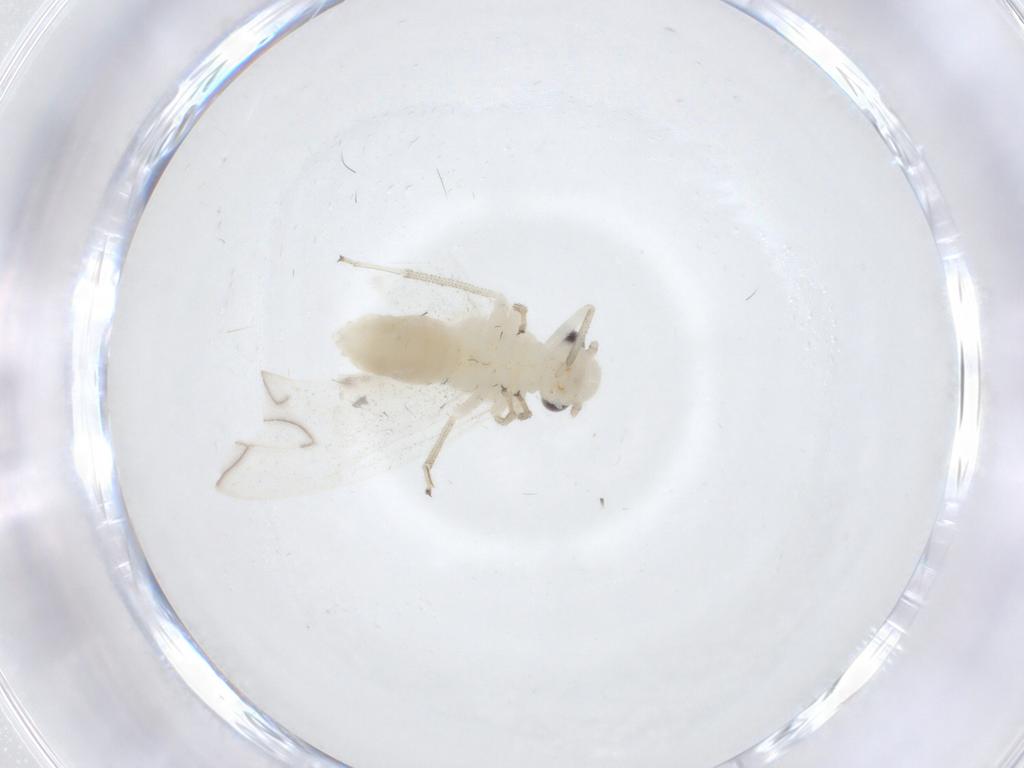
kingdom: Animalia
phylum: Arthropoda
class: Insecta
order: Psocodea
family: Caeciliusidae
